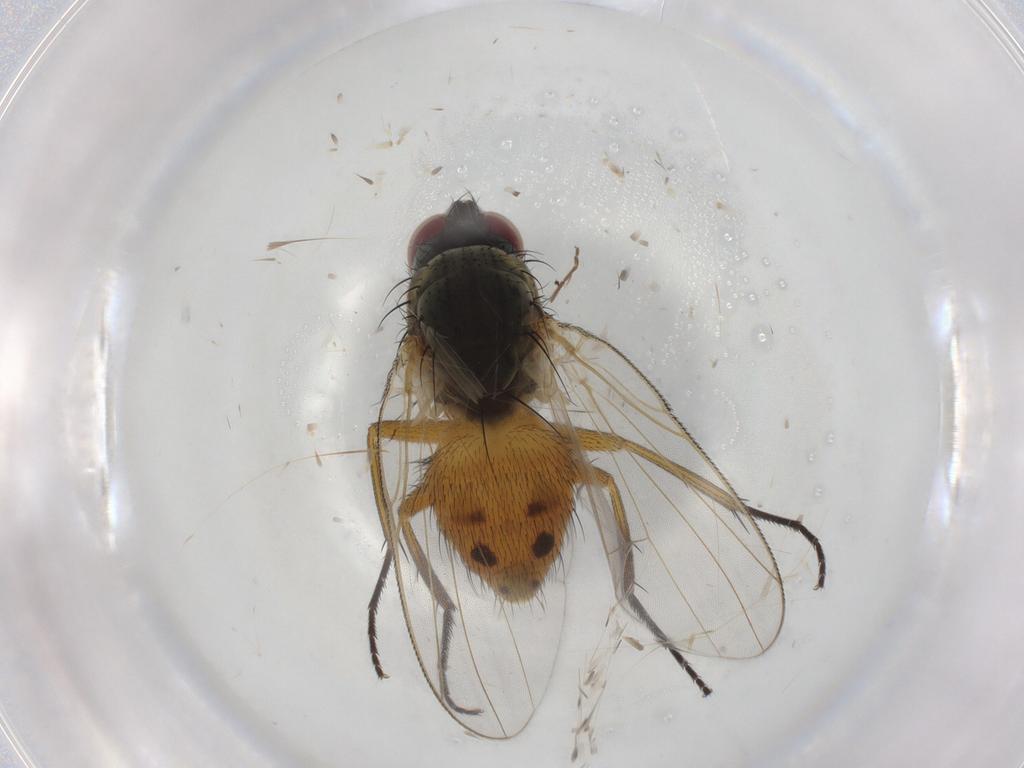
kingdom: Animalia
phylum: Arthropoda
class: Insecta
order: Diptera
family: Muscidae
